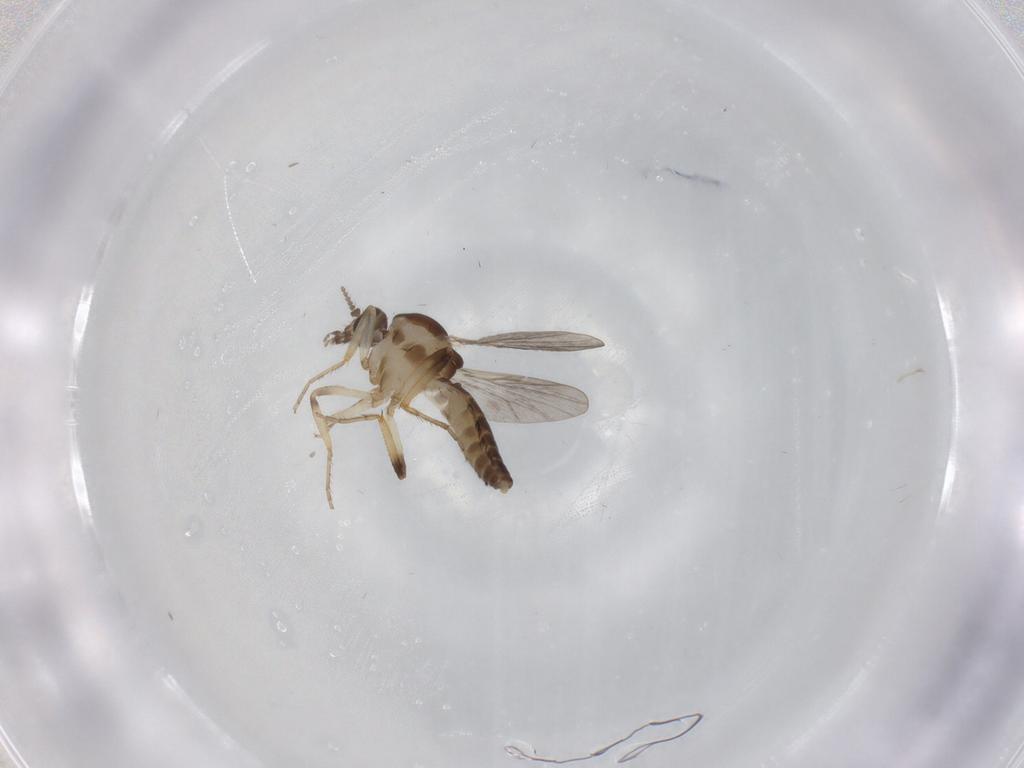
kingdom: Animalia
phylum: Arthropoda
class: Insecta
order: Diptera
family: Ceratopogonidae
